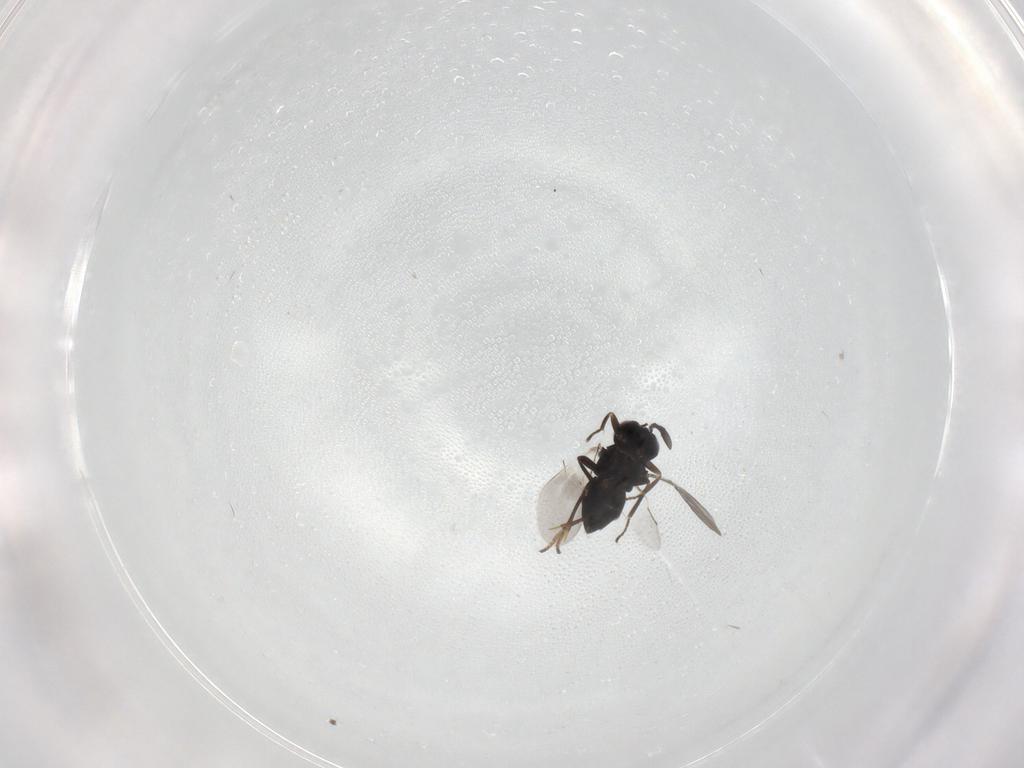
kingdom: Animalia
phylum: Arthropoda
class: Insecta
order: Hymenoptera
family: Encyrtidae
